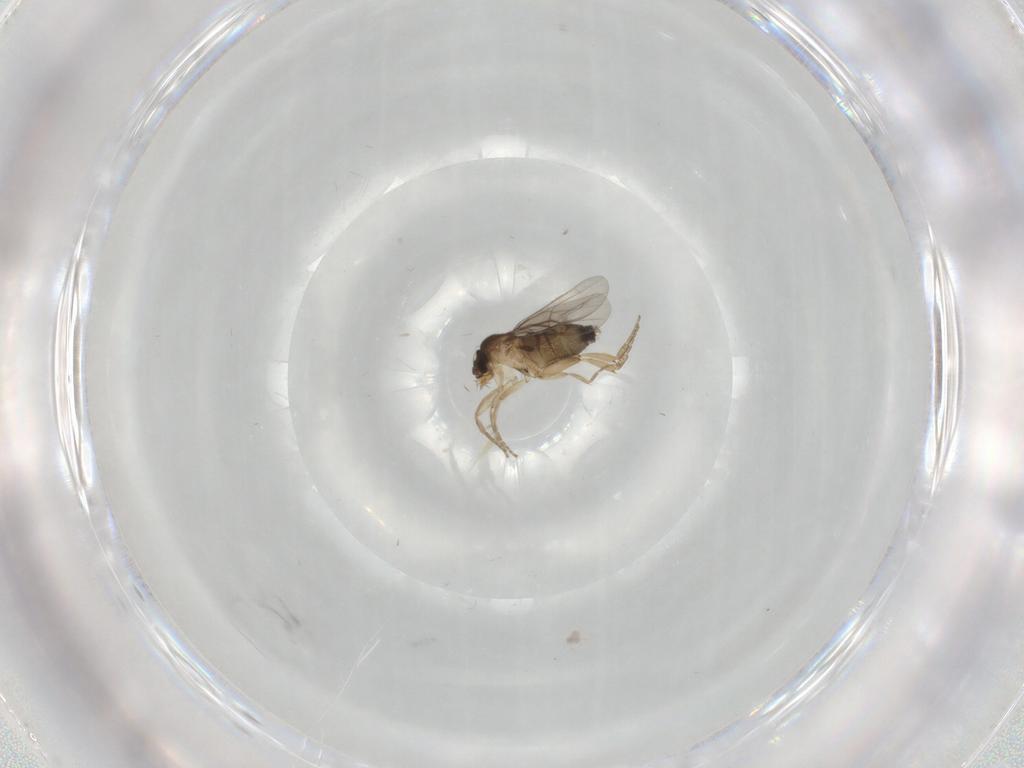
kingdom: Animalia
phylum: Arthropoda
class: Insecta
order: Diptera
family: Phoridae
